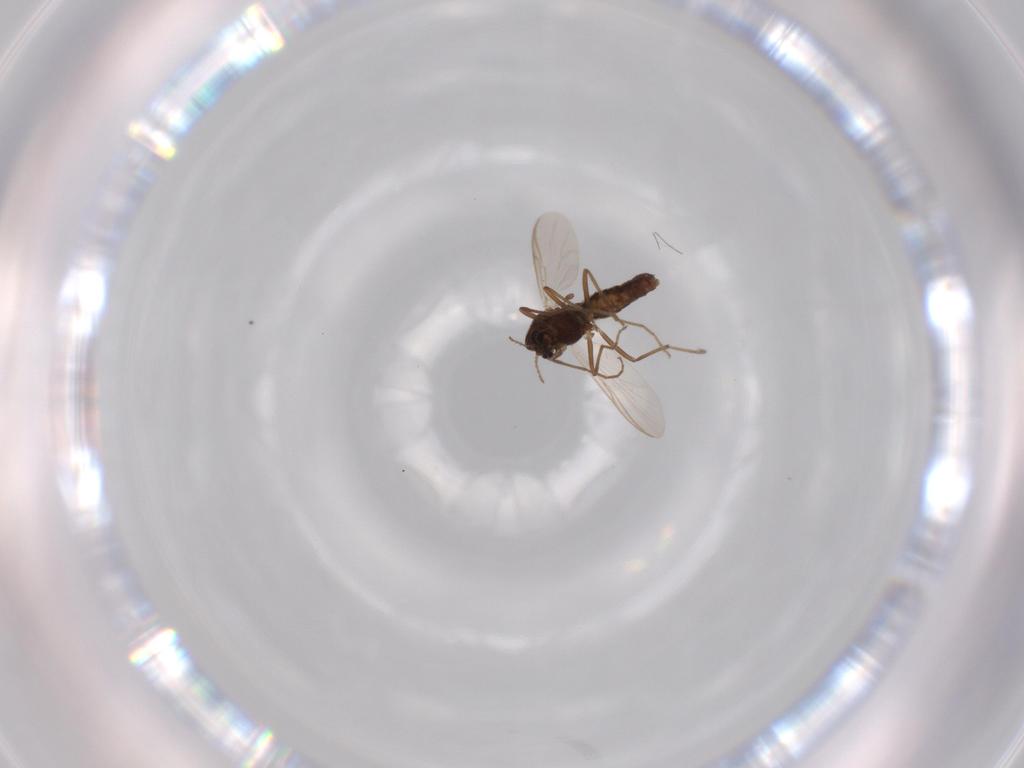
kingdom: Animalia
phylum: Arthropoda
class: Insecta
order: Diptera
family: Chironomidae
